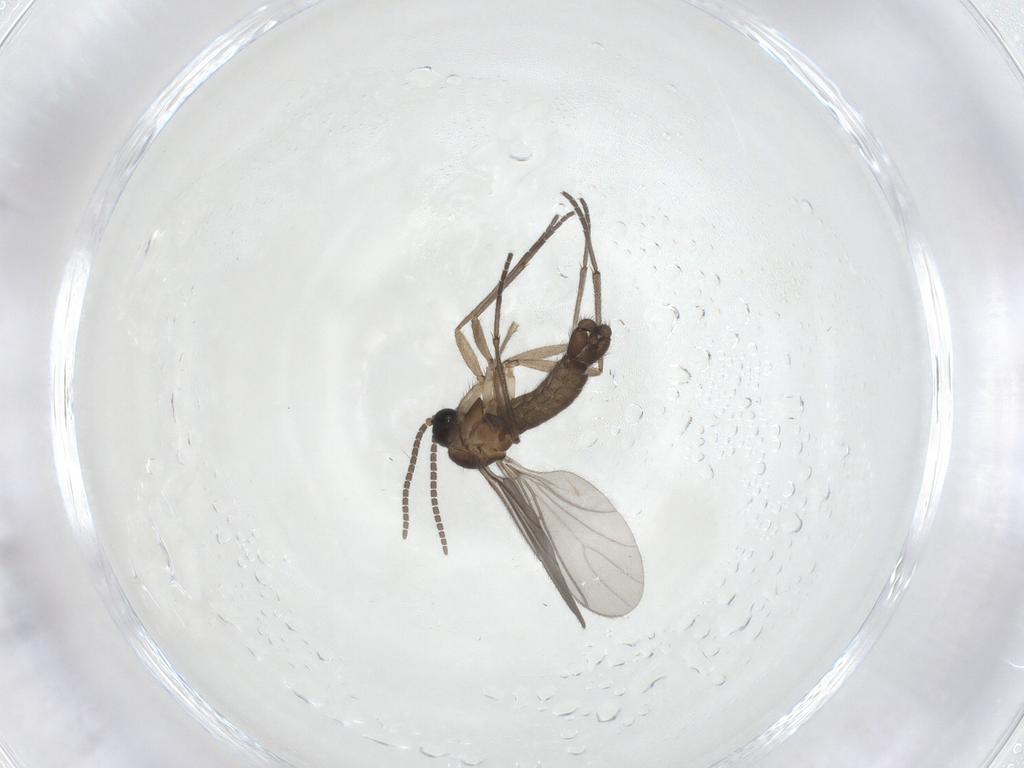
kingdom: Animalia
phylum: Arthropoda
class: Insecta
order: Diptera
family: Sciaridae
